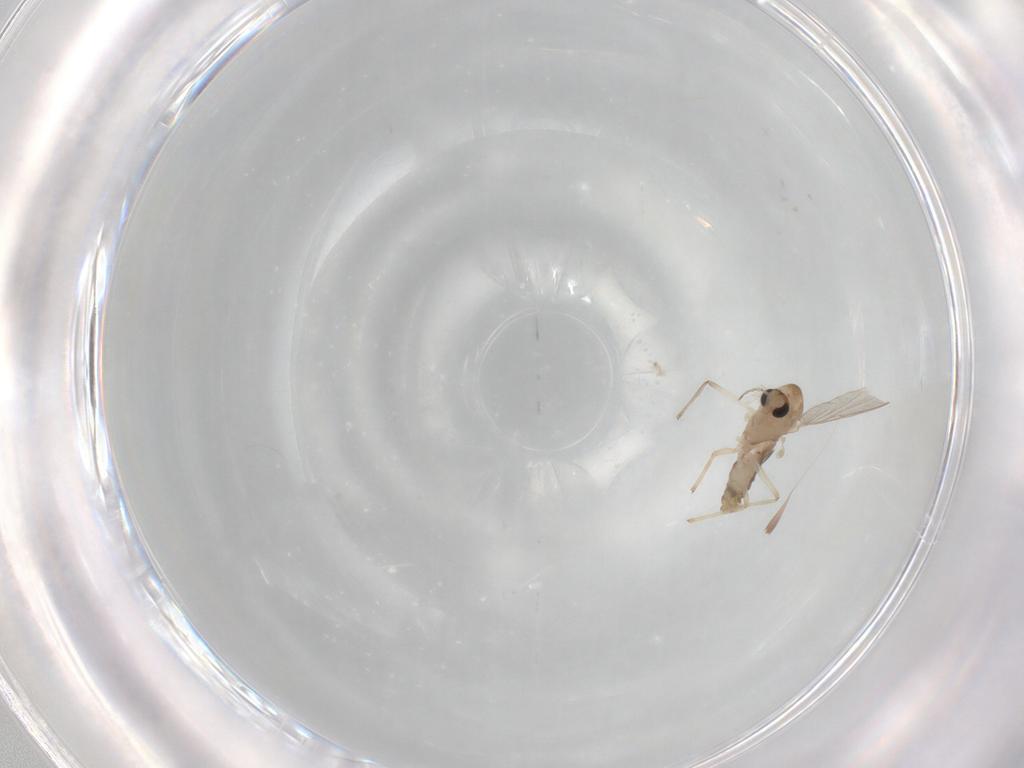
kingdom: Animalia
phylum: Arthropoda
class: Insecta
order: Diptera
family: Chironomidae
